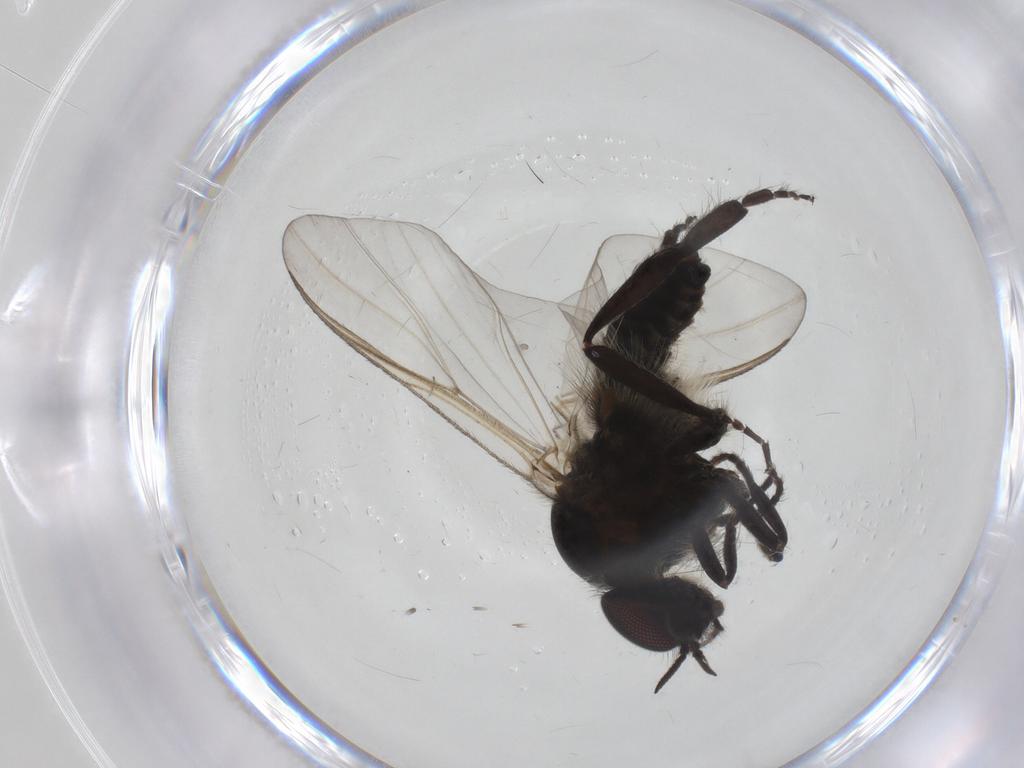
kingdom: Animalia
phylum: Arthropoda
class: Insecta
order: Diptera
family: Simuliidae
